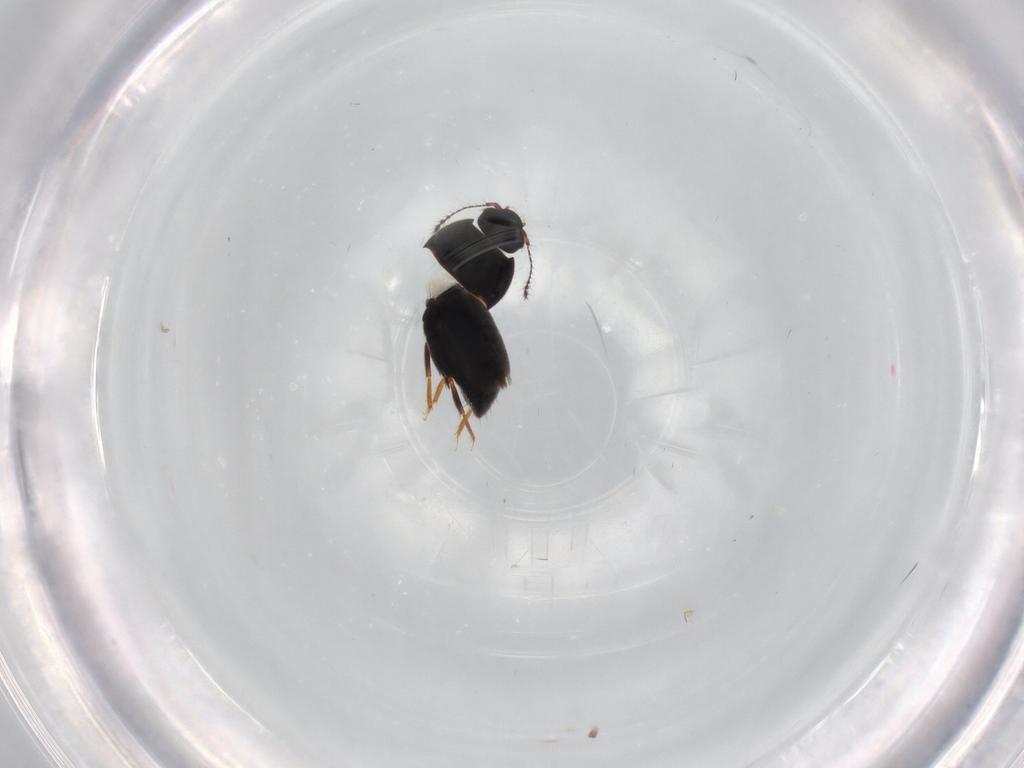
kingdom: Animalia
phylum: Arthropoda
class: Insecta
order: Coleoptera
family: Ptiliidae
